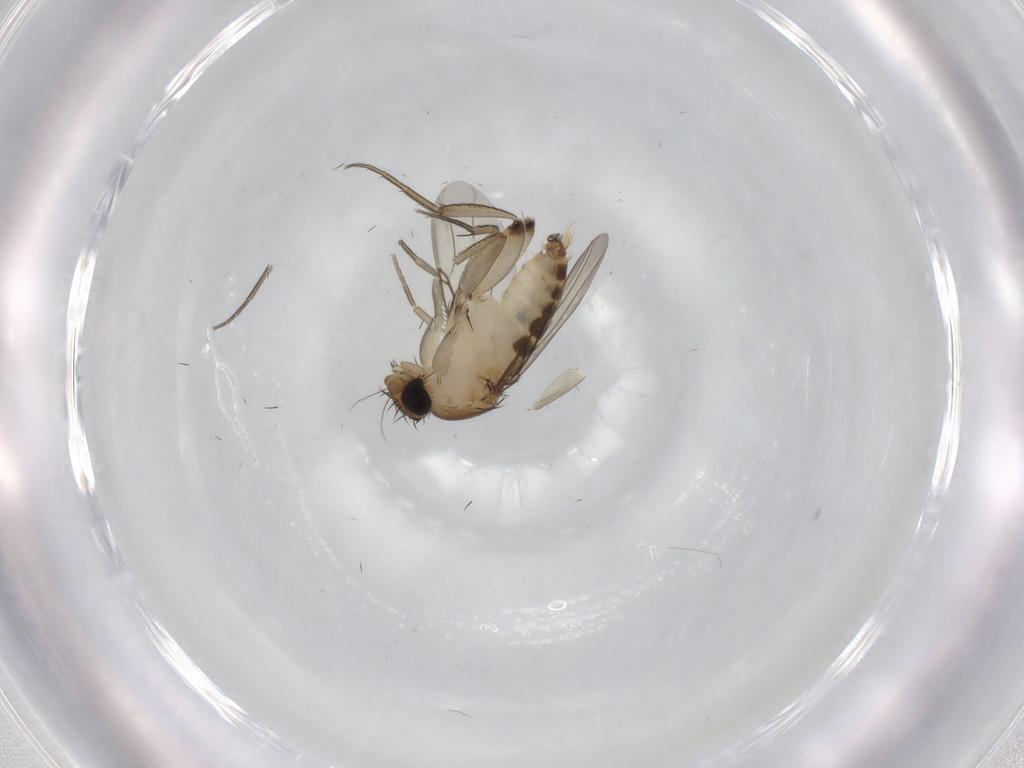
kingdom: Animalia
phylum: Arthropoda
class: Insecta
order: Diptera
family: Phoridae
